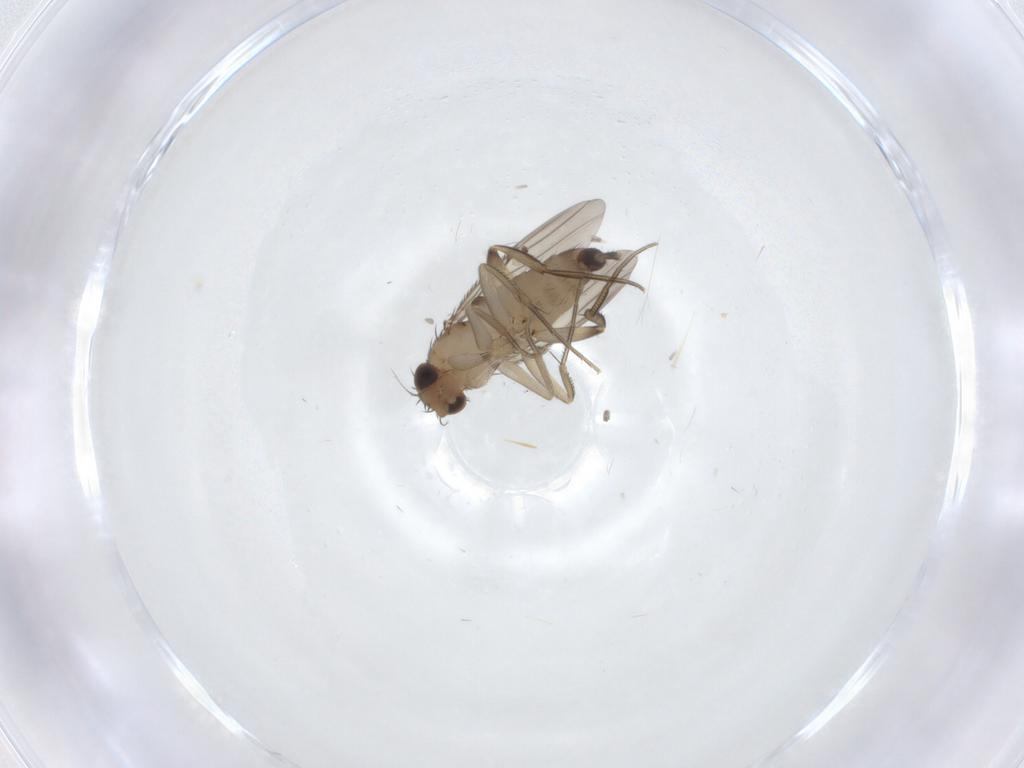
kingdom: Animalia
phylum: Arthropoda
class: Insecta
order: Diptera
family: Phoridae
